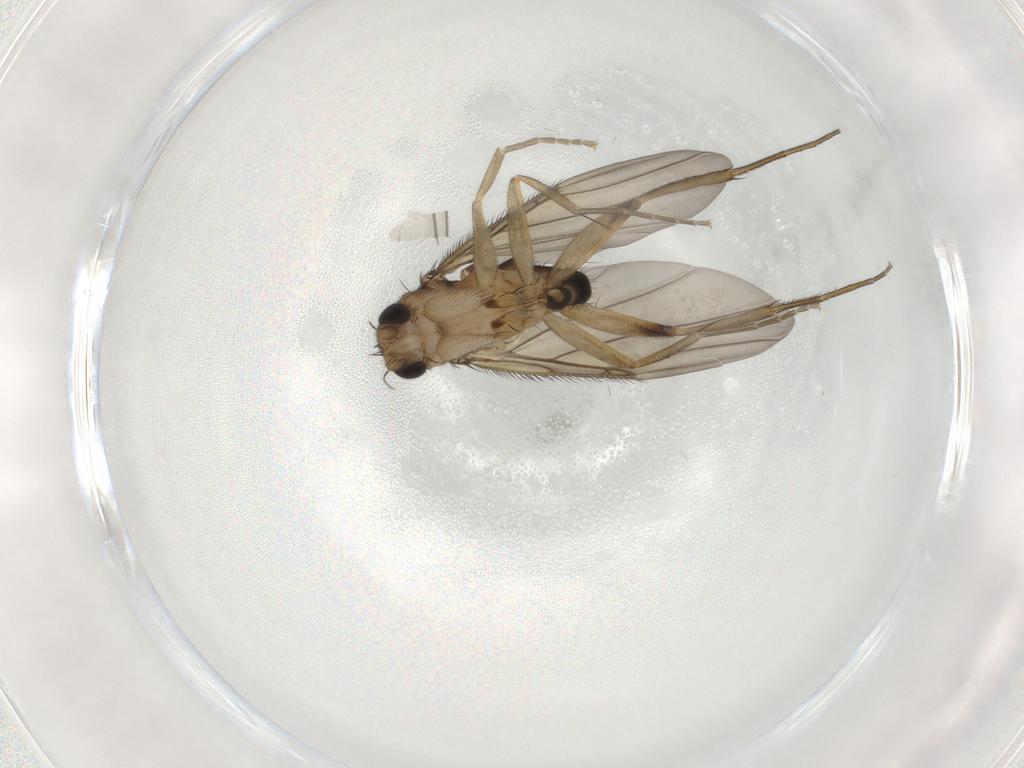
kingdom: Animalia
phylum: Arthropoda
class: Insecta
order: Diptera
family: Phoridae
